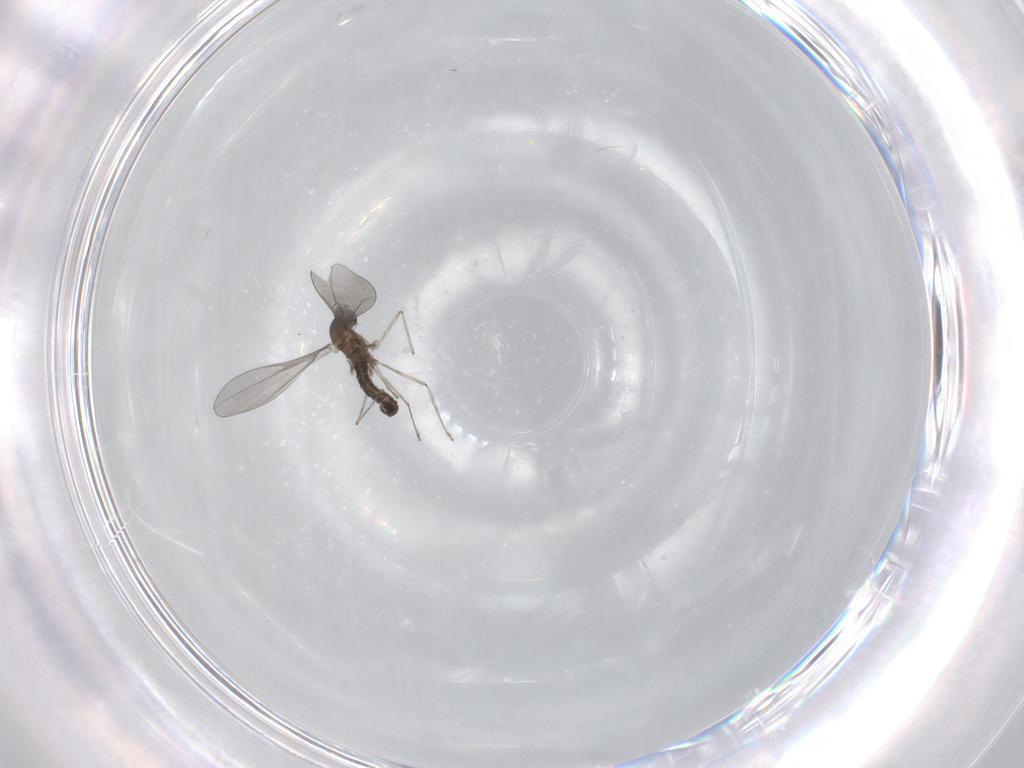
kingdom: Animalia
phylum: Arthropoda
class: Insecta
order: Diptera
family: Cecidomyiidae
